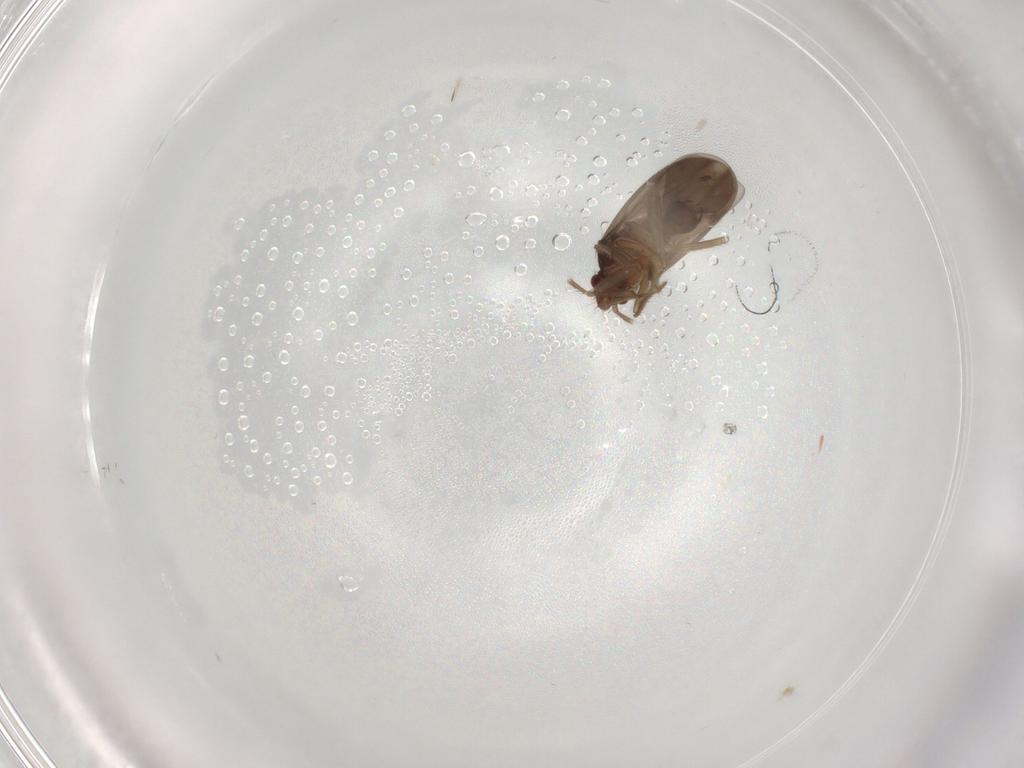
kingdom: Animalia
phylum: Arthropoda
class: Insecta
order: Hemiptera
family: Ceratocombidae
